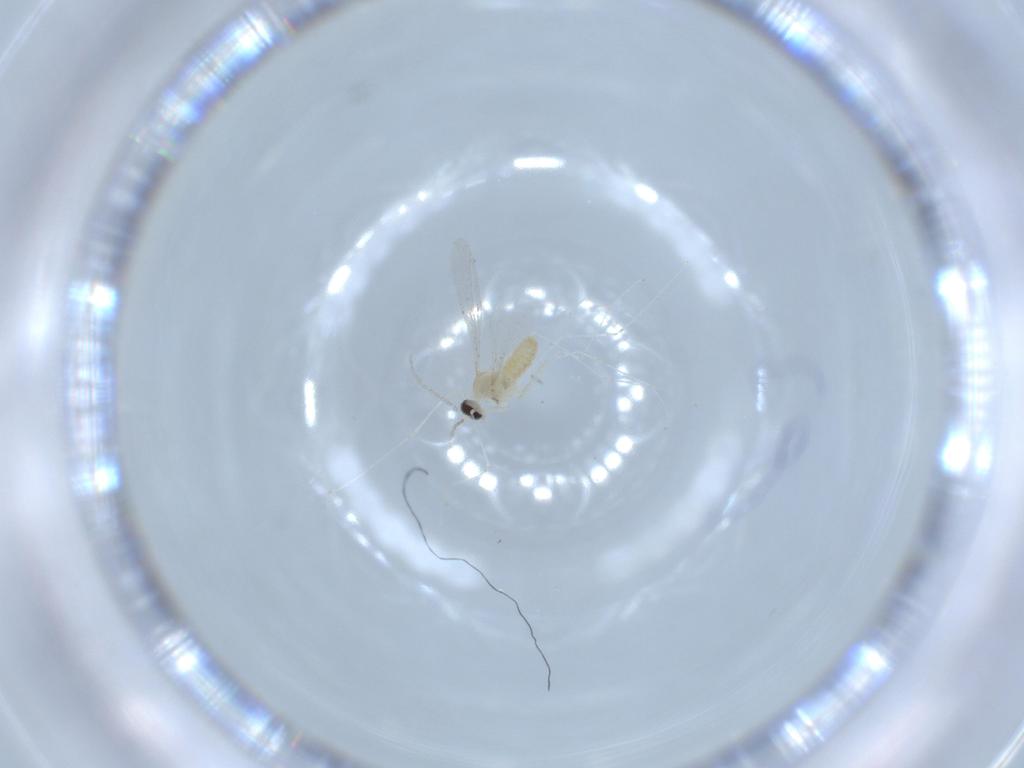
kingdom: Animalia
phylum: Arthropoda
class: Insecta
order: Diptera
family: Cecidomyiidae
